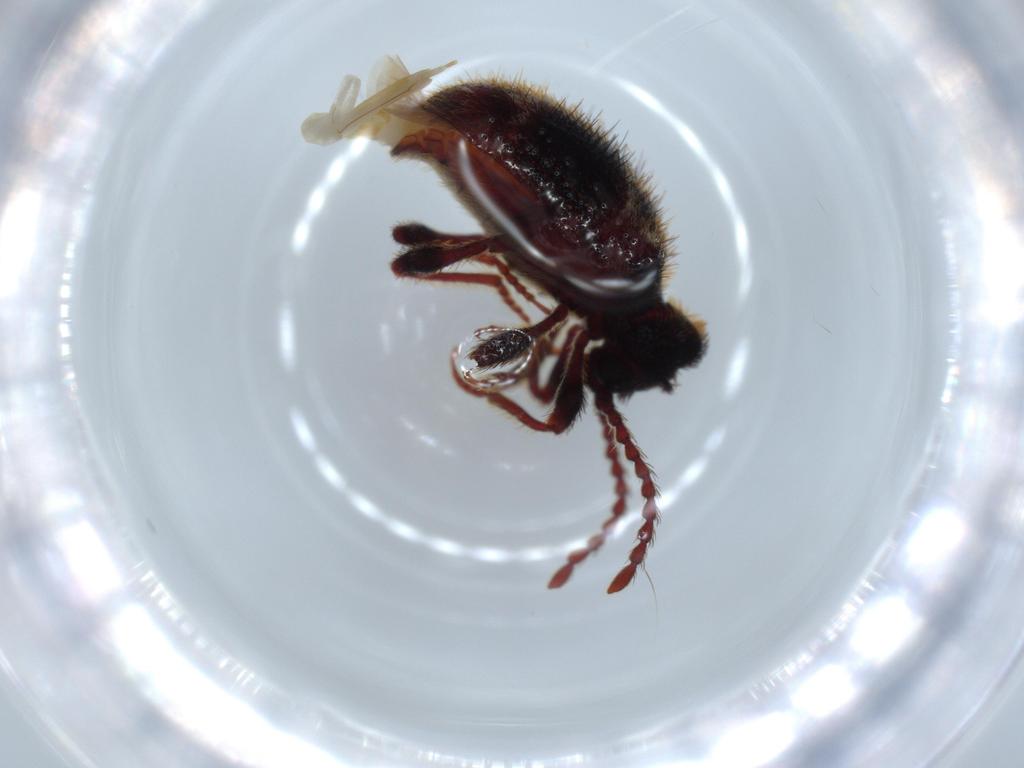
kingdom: Animalia
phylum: Arthropoda
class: Insecta
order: Coleoptera
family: Ptinidae
